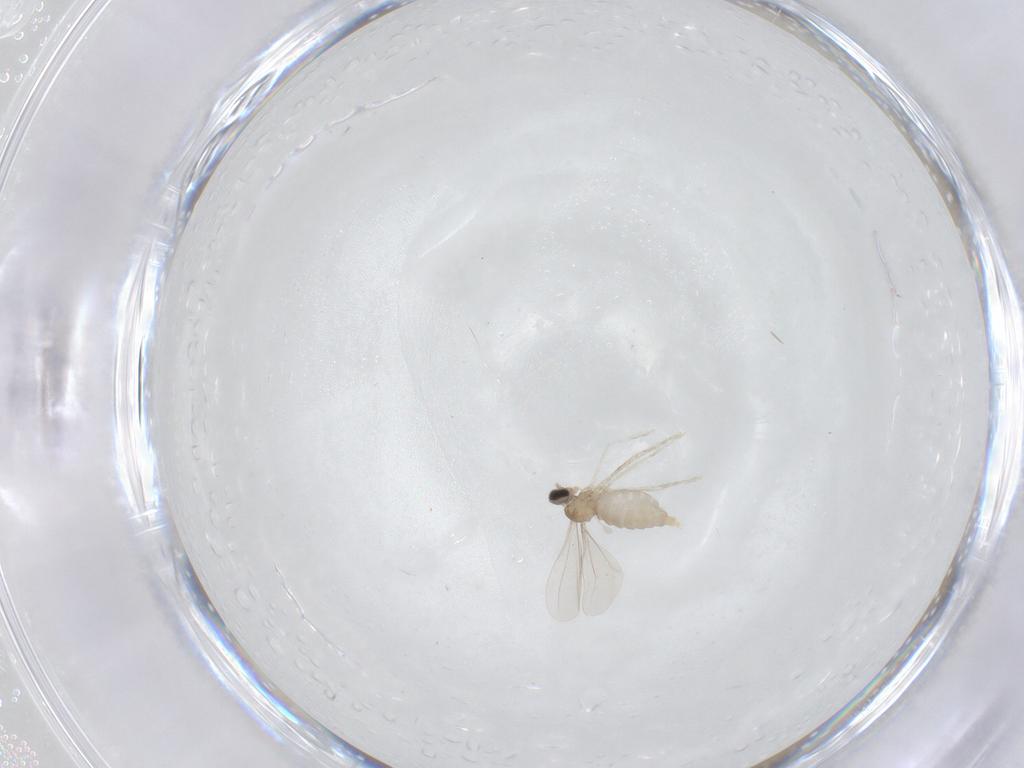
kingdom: Animalia
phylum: Arthropoda
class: Insecta
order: Diptera
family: Cecidomyiidae
